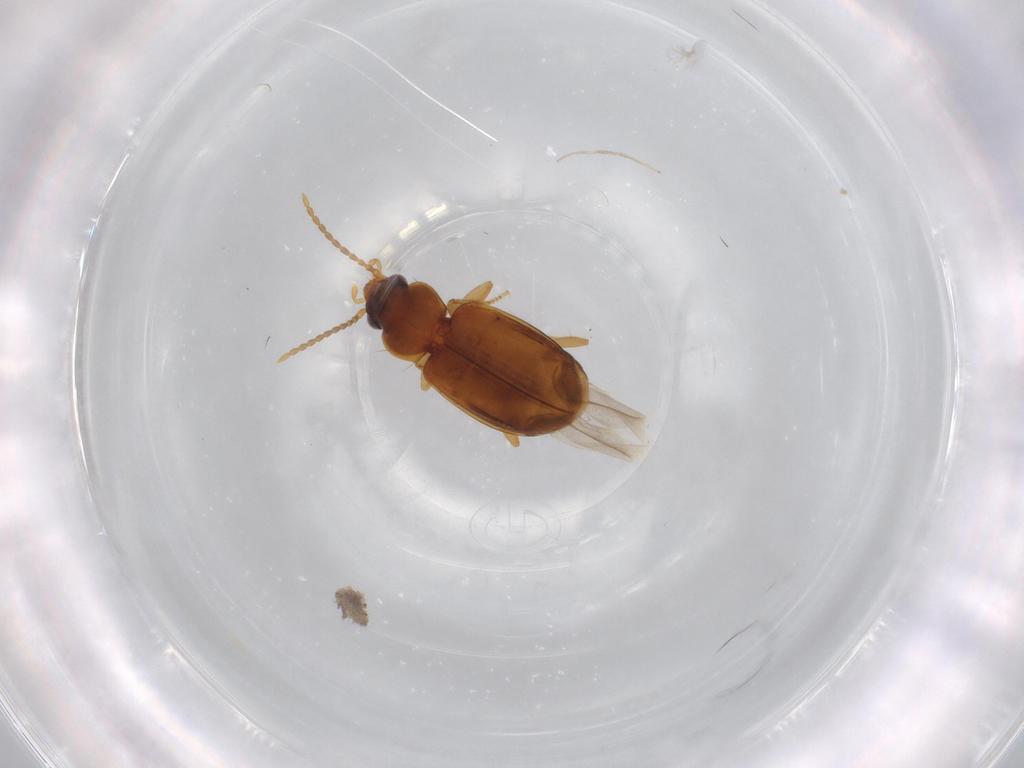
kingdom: Animalia
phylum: Arthropoda
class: Insecta
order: Coleoptera
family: Carabidae
